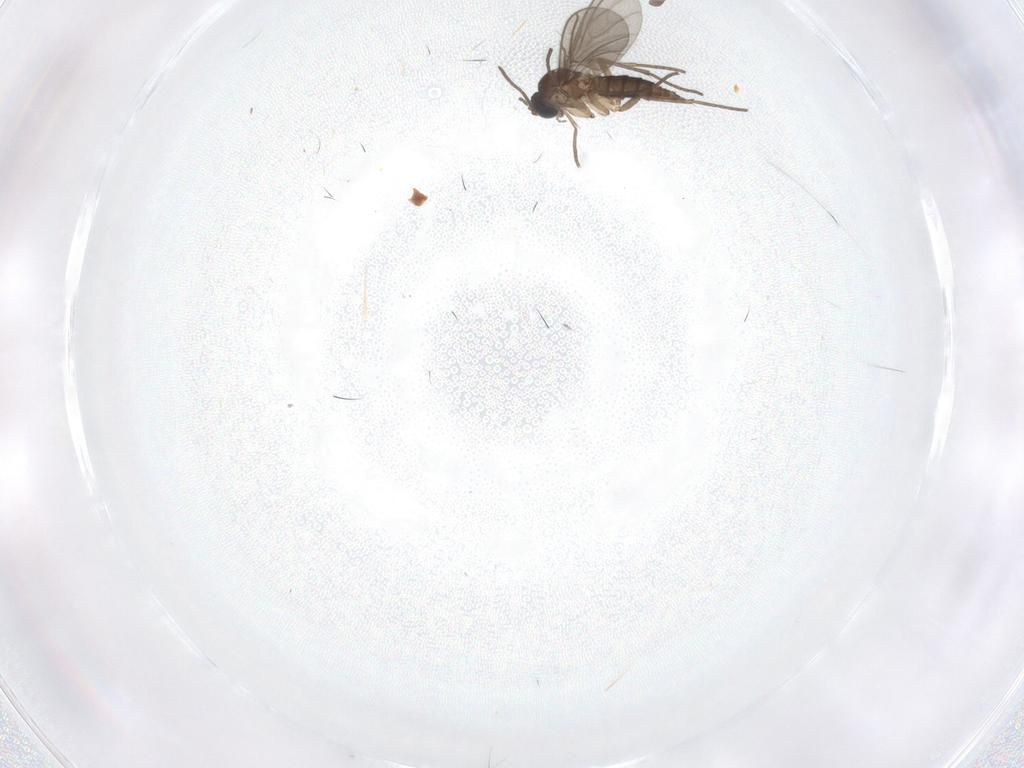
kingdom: Animalia
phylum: Arthropoda
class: Insecta
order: Diptera
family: Sciaridae
